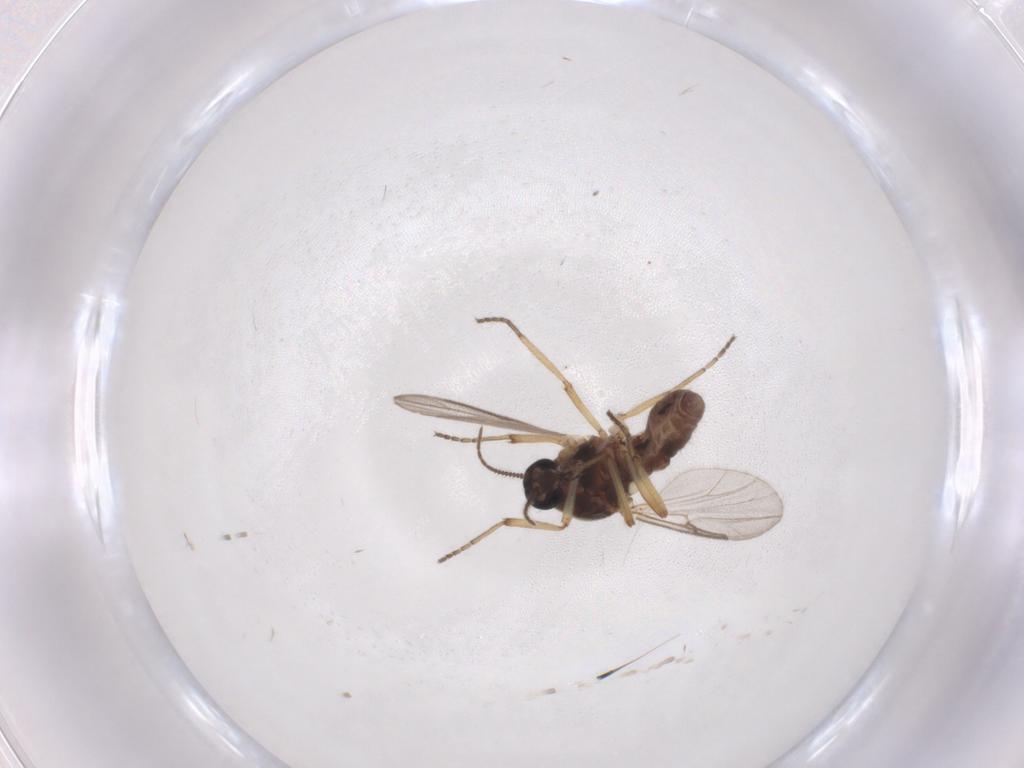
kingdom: Animalia
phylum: Arthropoda
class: Insecta
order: Diptera
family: Ceratopogonidae
